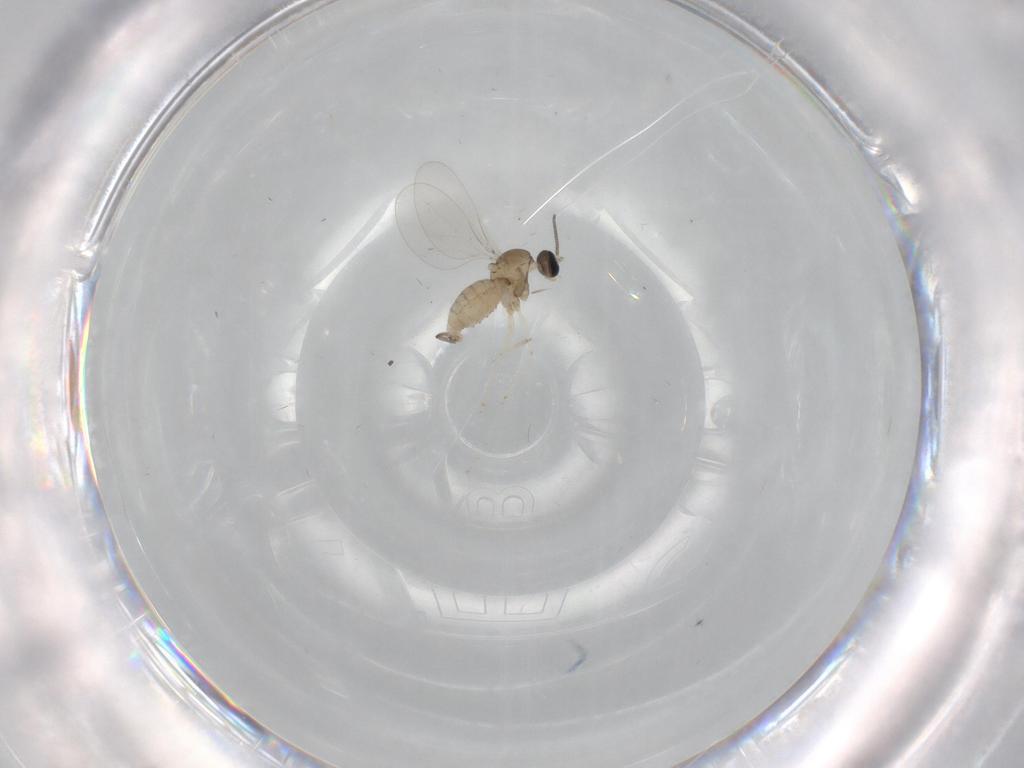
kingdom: Animalia
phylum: Arthropoda
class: Insecta
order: Diptera
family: Cecidomyiidae
